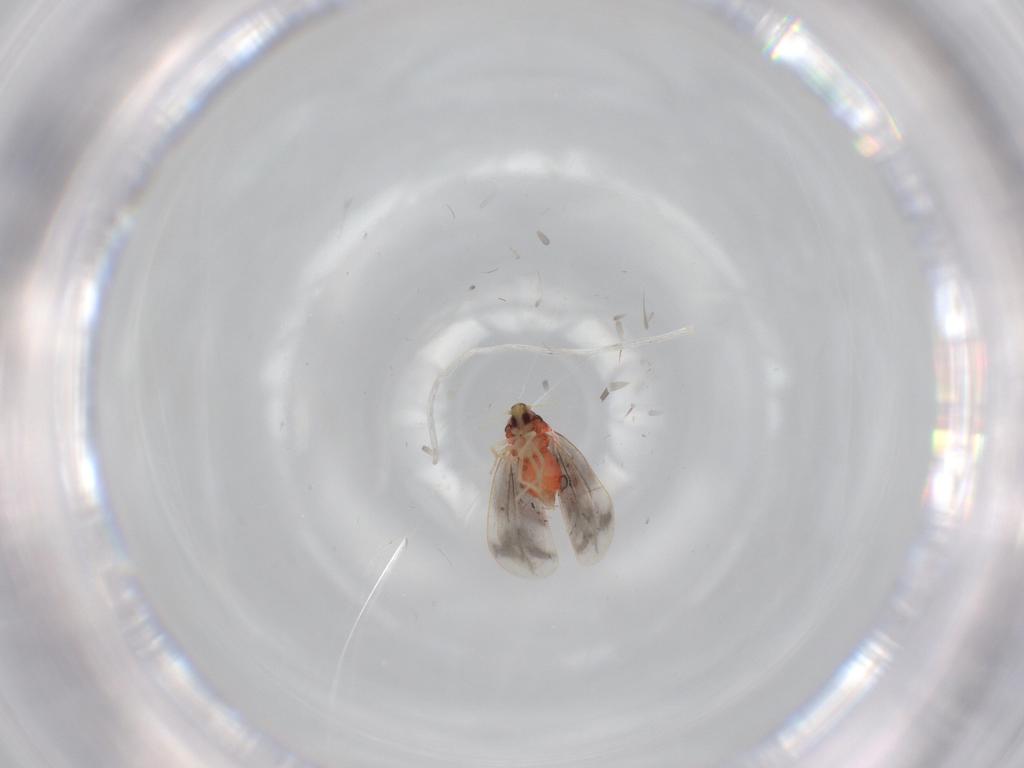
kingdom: Animalia
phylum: Arthropoda
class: Insecta
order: Hemiptera
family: Aleyrodidae
